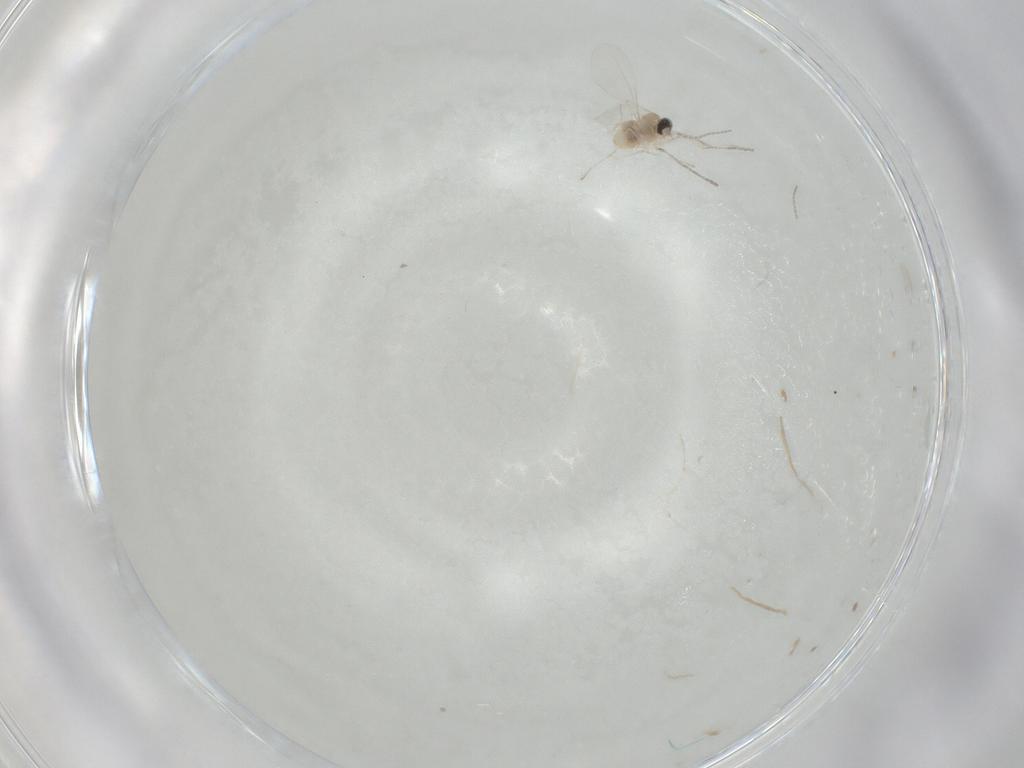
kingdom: Animalia
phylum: Arthropoda
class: Insecta
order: Diptera
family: Cecidomyiidae
